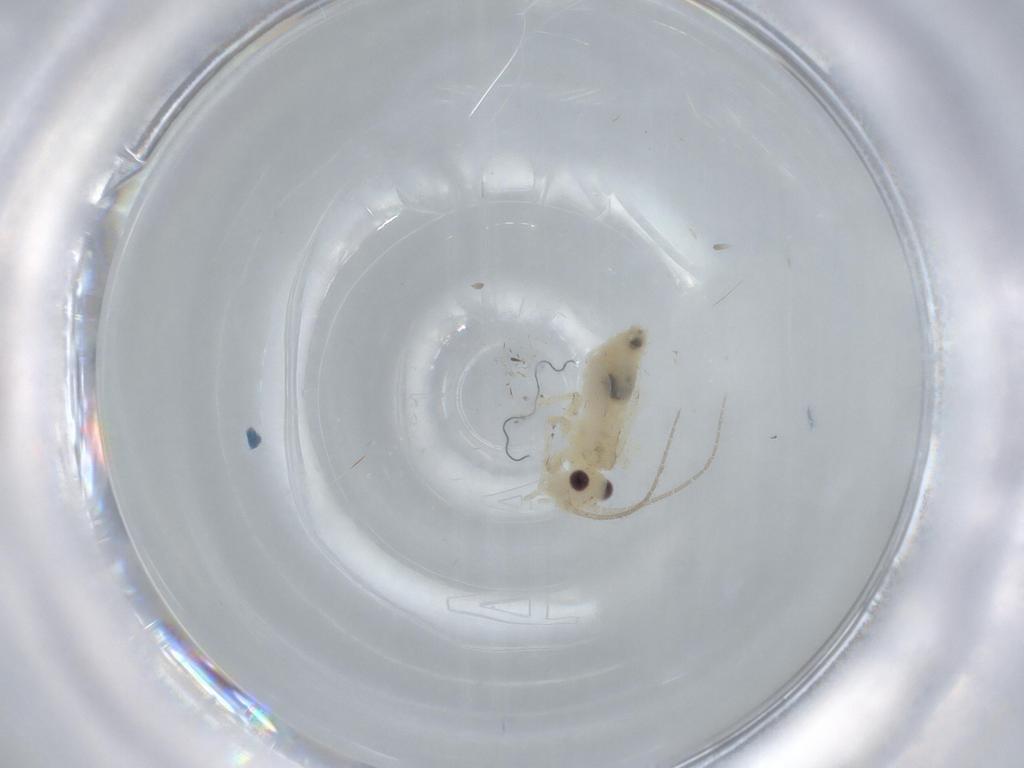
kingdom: Animalia
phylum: Arthropoda
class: Insecta
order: Psocodea
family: Caeciliusidae
